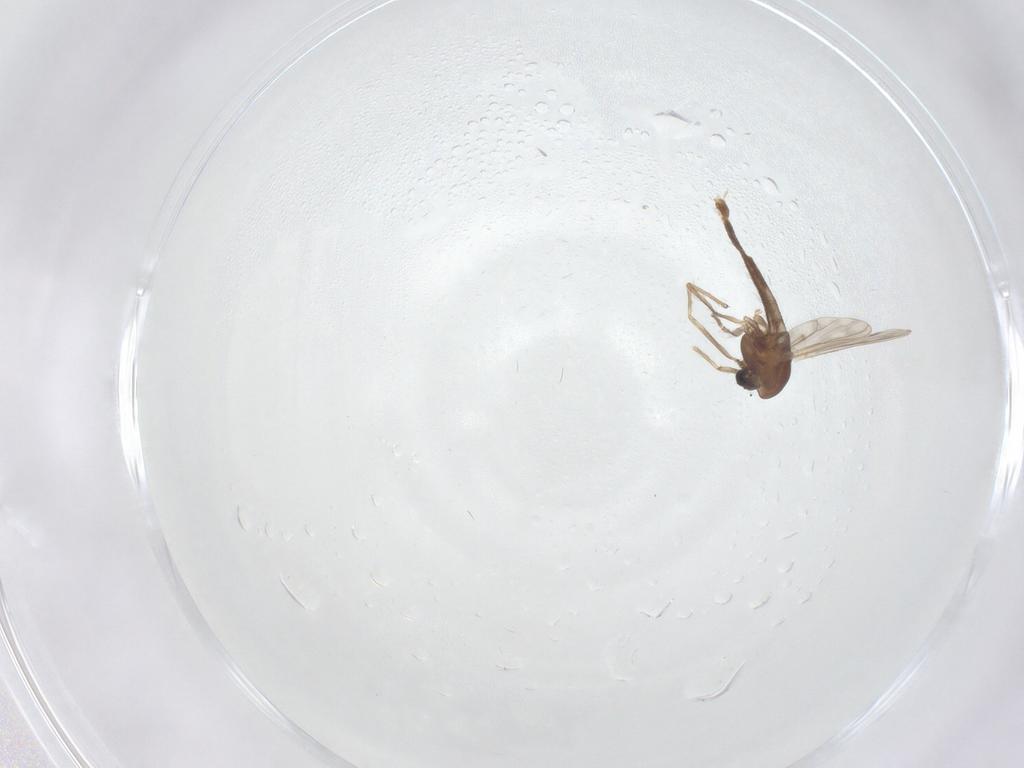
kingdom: Animalia
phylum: Arthropoda
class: Insecta
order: Diptera
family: Chironomidae
